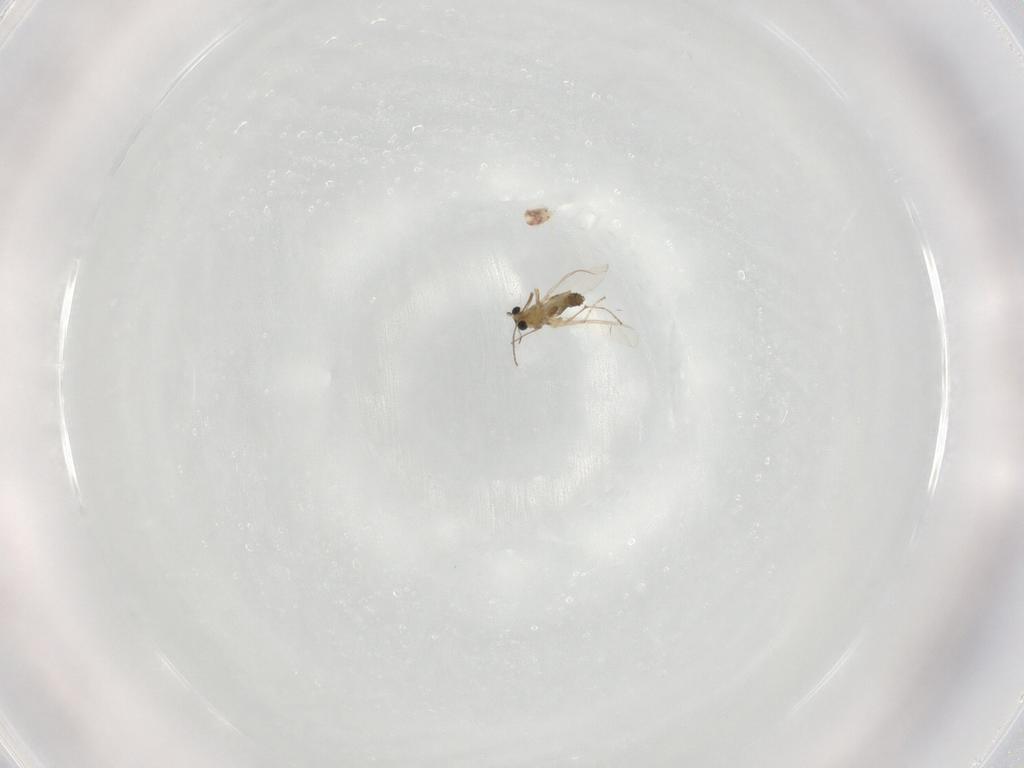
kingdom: Animalia
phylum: Arthropoda
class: Insecta
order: Diptera
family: Chironomidae
